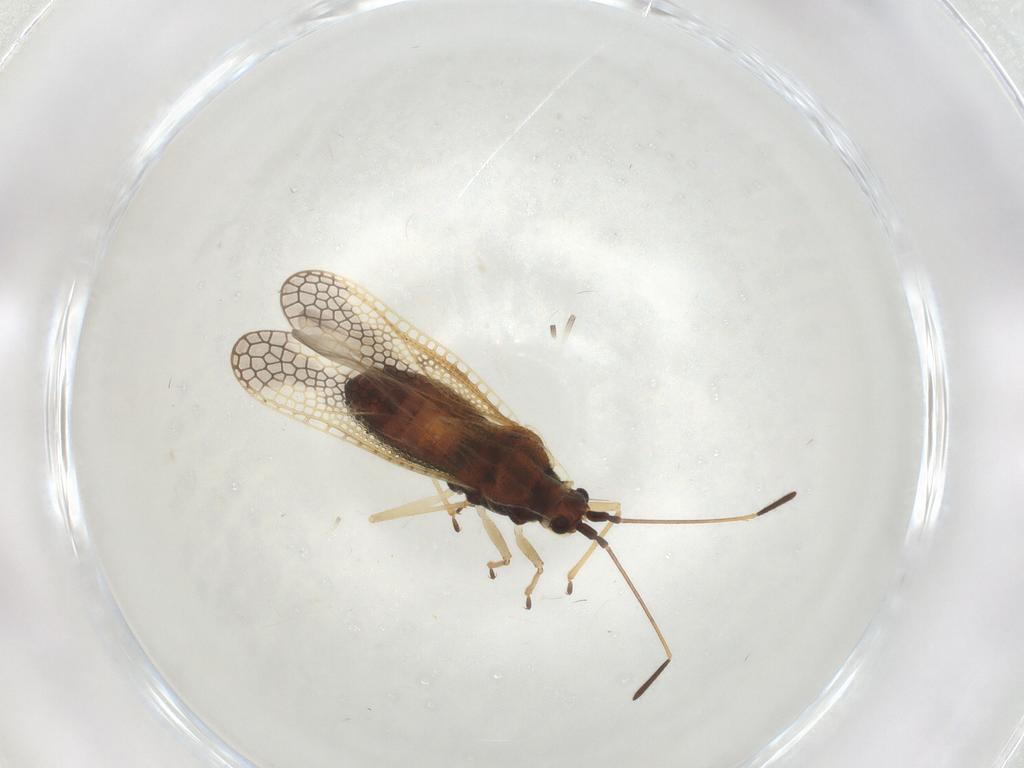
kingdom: Animalia
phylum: Arthropoda
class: Insecta
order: Hemiptera
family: Tingidae
